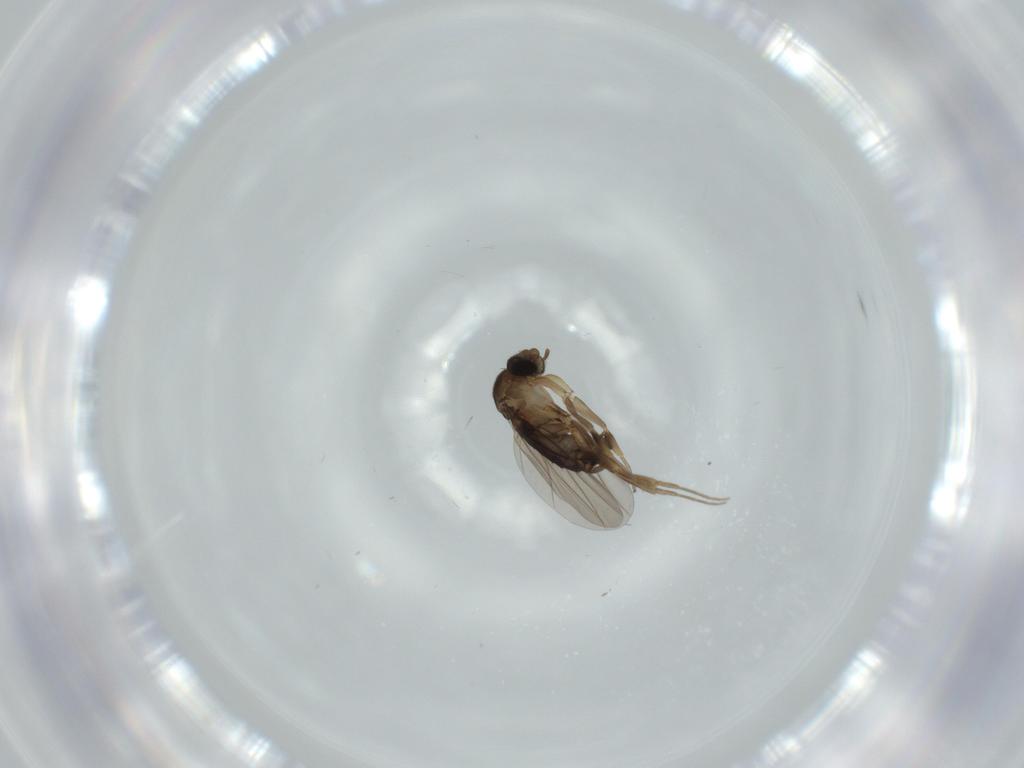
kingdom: Animalia
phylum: Arthropoda
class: Insecta
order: Diptera
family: Phoridae
